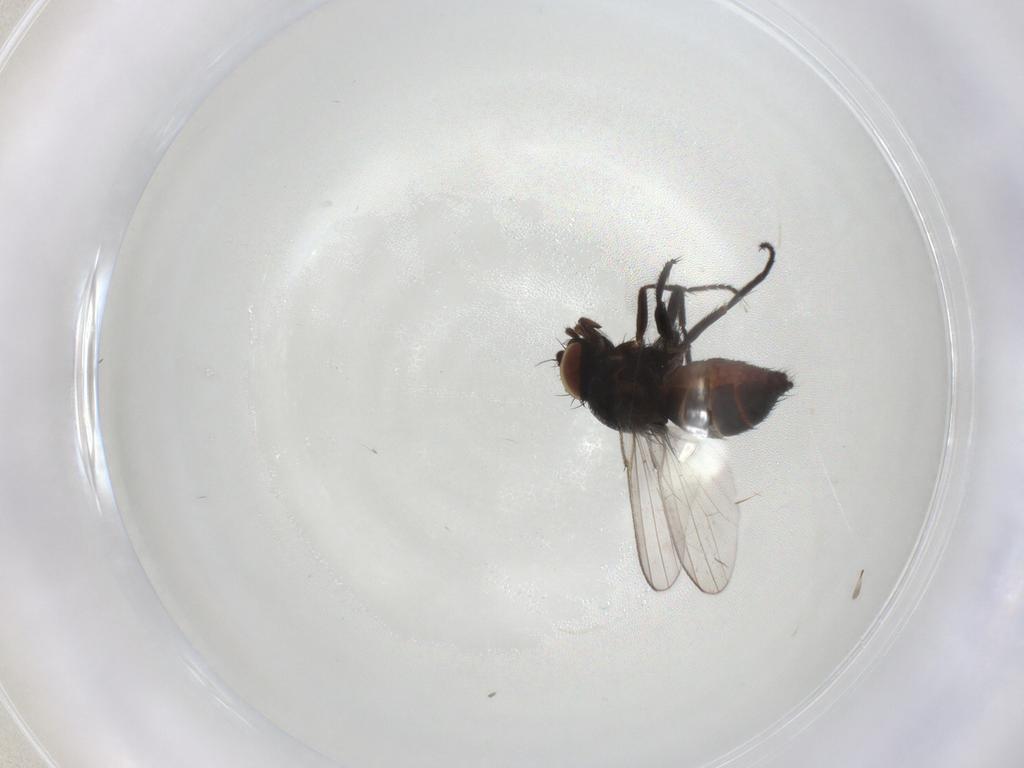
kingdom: Animalia
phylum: Arthropoda
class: Insecta
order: Diptera
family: Milichiidae
